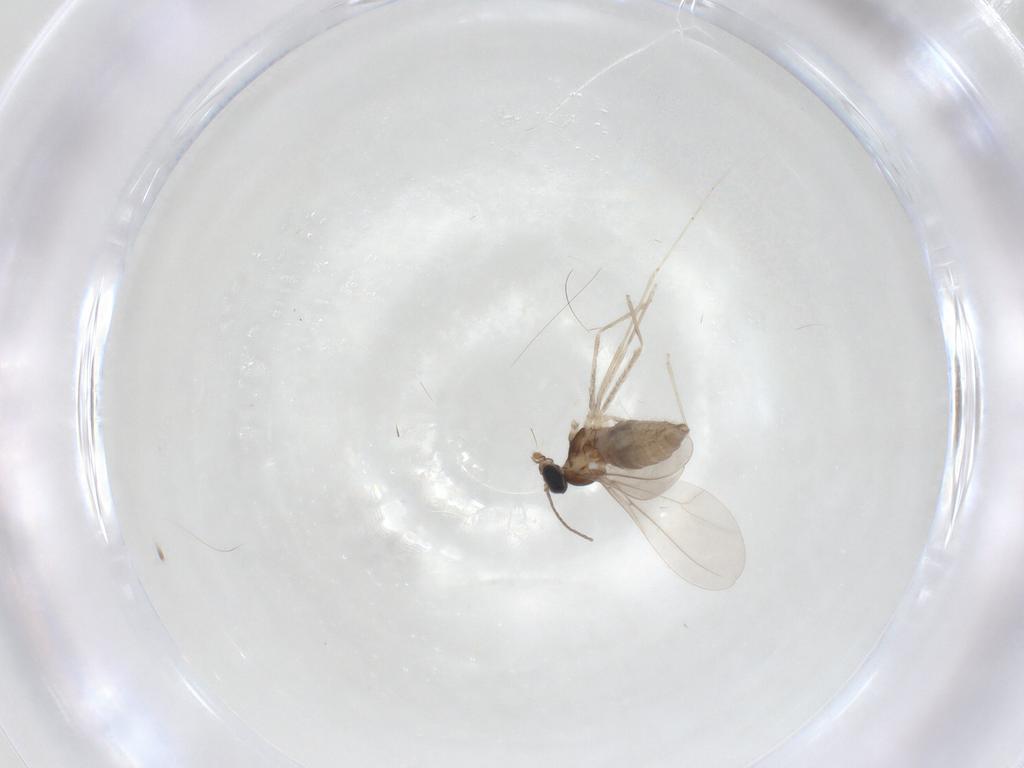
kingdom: Animalia
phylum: Arthropoda
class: Insecta
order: Diptera
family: Cecidomyiidae
